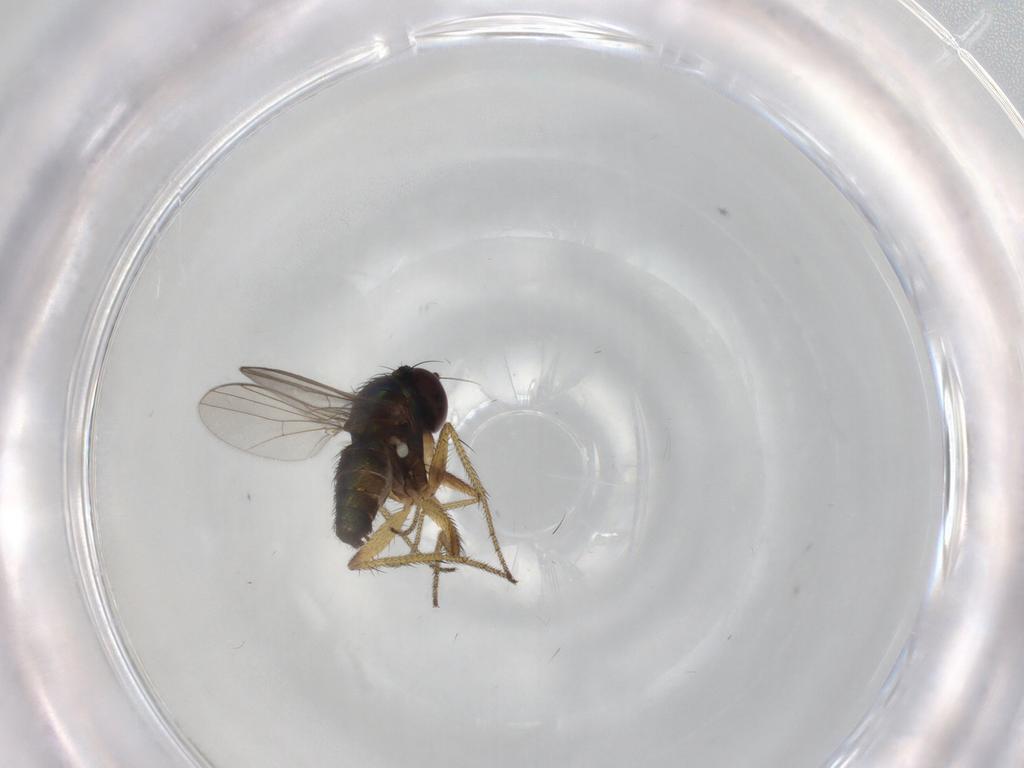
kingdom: Animalia
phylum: Arthropoda
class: Insecta
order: Diptera
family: Dolichopodidae
